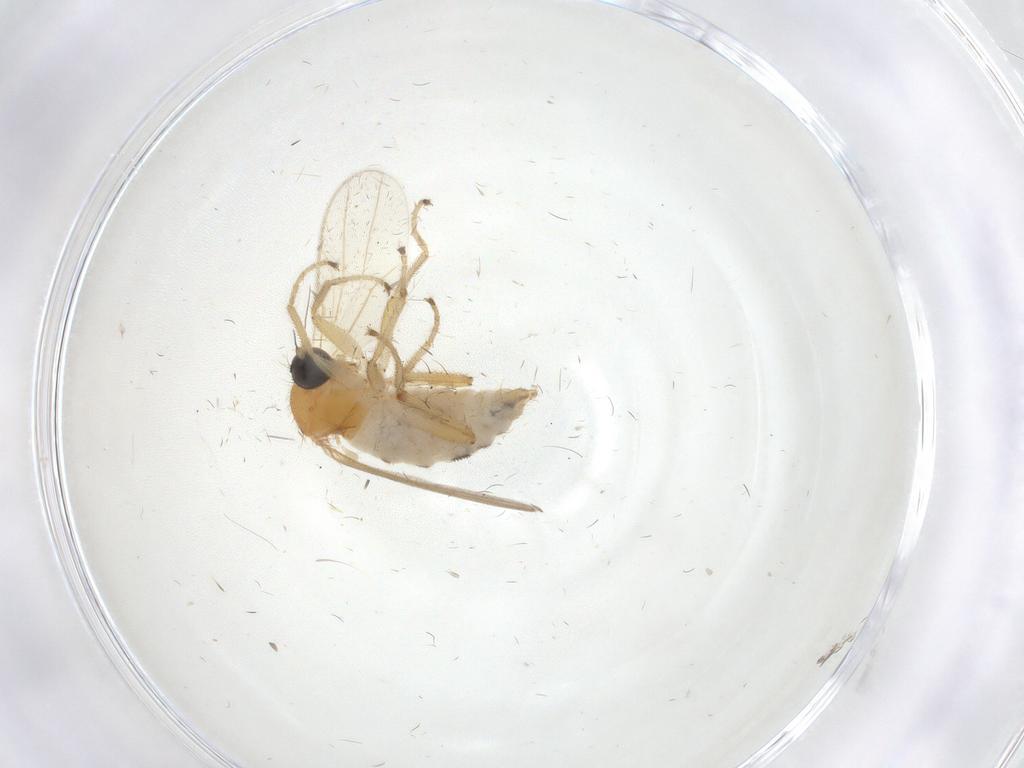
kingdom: Animalia
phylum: Arthropoda
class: Insecta
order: Diptera
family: Hybotidae
